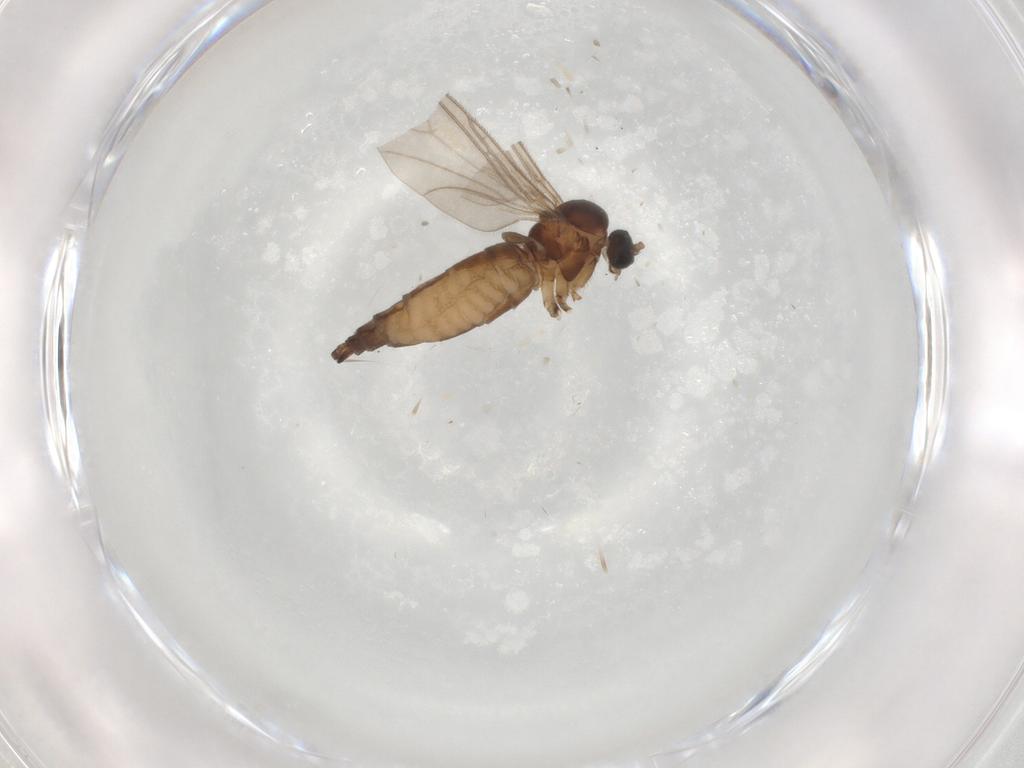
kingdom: Animalia
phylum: Arthropoda
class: Insecta
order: Diptera
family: Sciaridae
